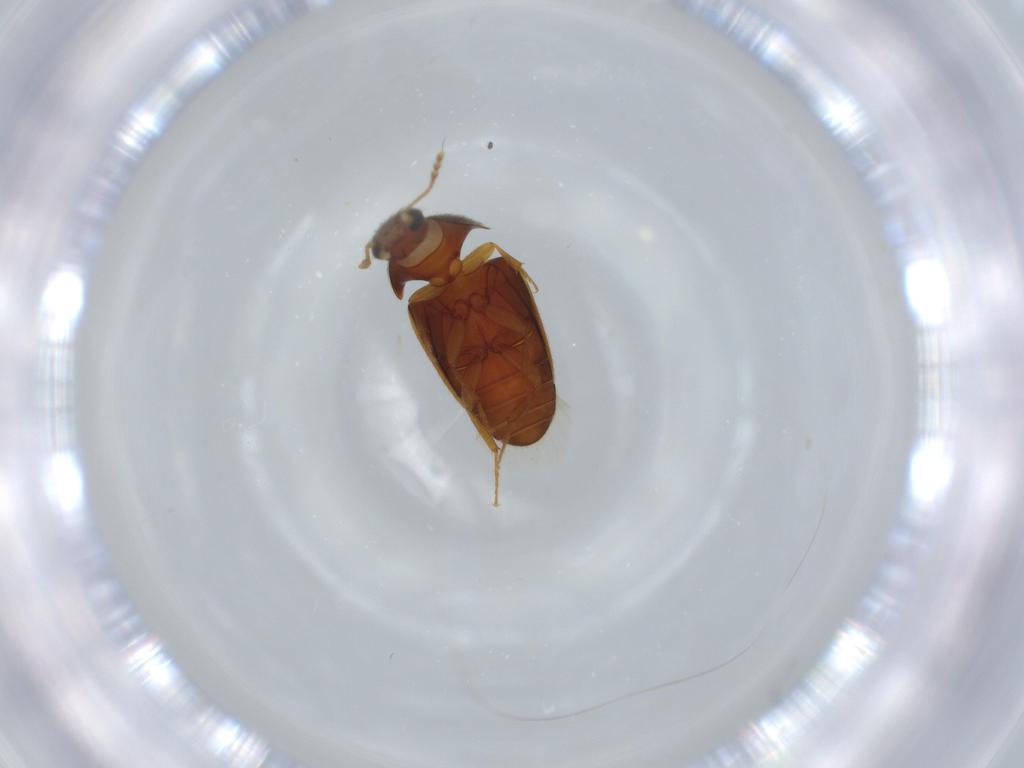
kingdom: Animalia
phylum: Arthropoda
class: Insecta
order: Coleoptera
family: Mycetophagidae
